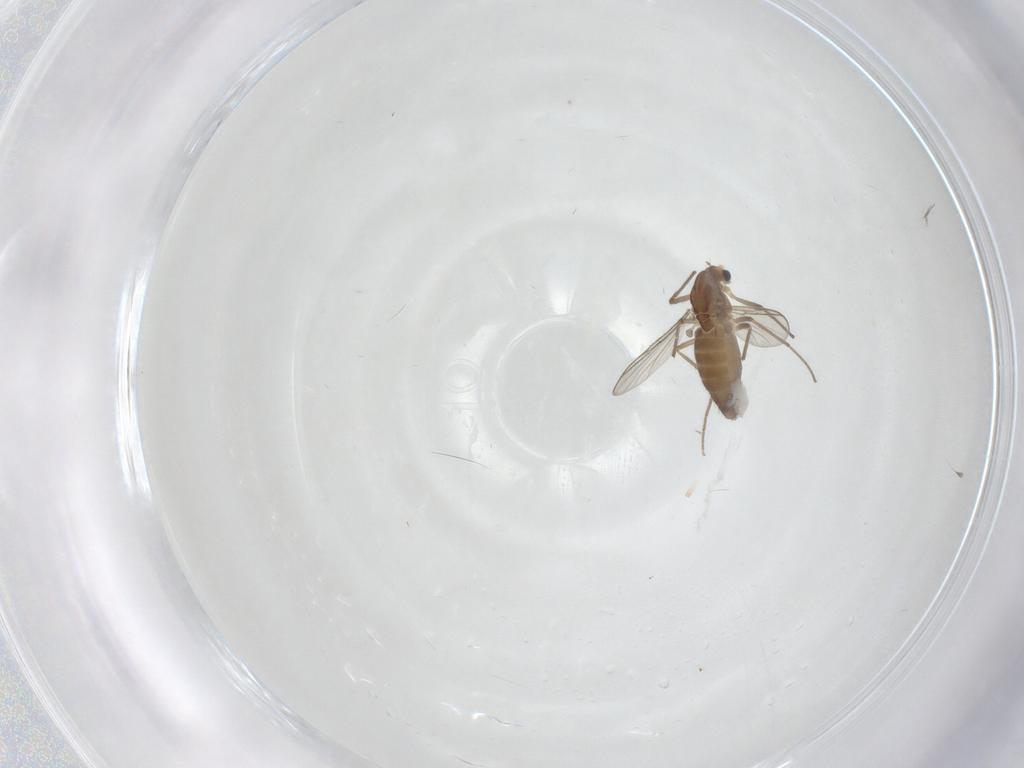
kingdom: Animalia
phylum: Arthropoda
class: Insecta
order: Diptera
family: Chironomidae
